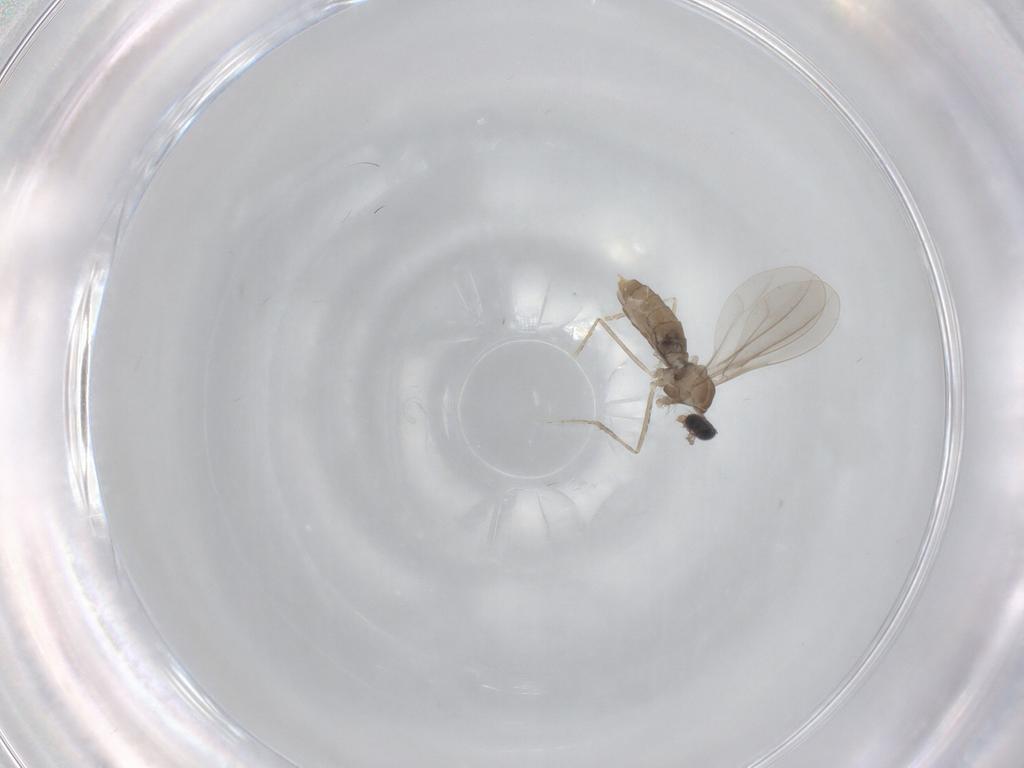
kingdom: Animalia
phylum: Arthropoda
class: Insecta
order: Diptera
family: Cecidomyiidae
